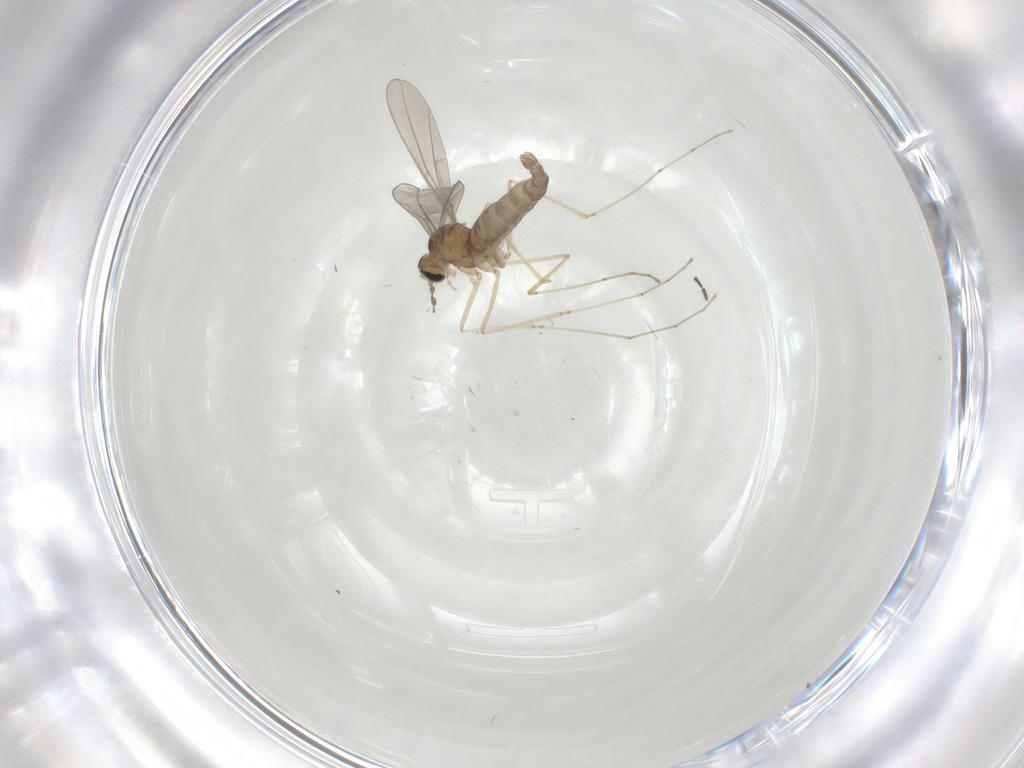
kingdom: Animalia
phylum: Arthropoda
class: Insecta
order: Diptera
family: Cecidomyiidae
